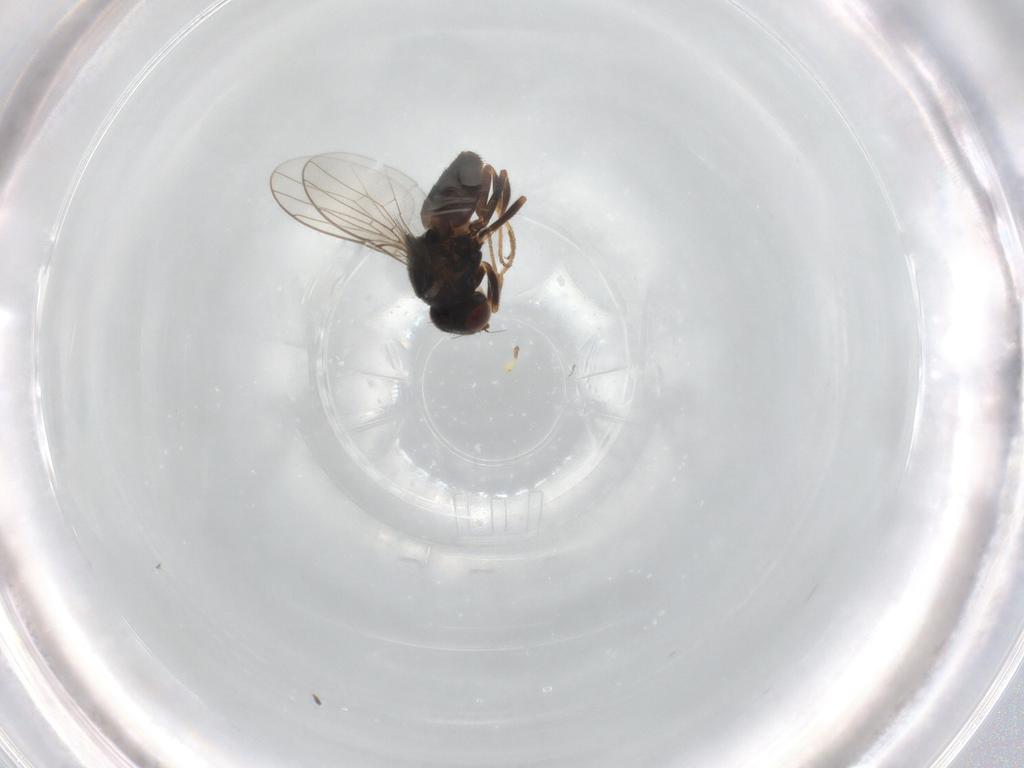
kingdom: Animalia
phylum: Arthropoda
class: Insecta
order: Diptera
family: Chloropidae
